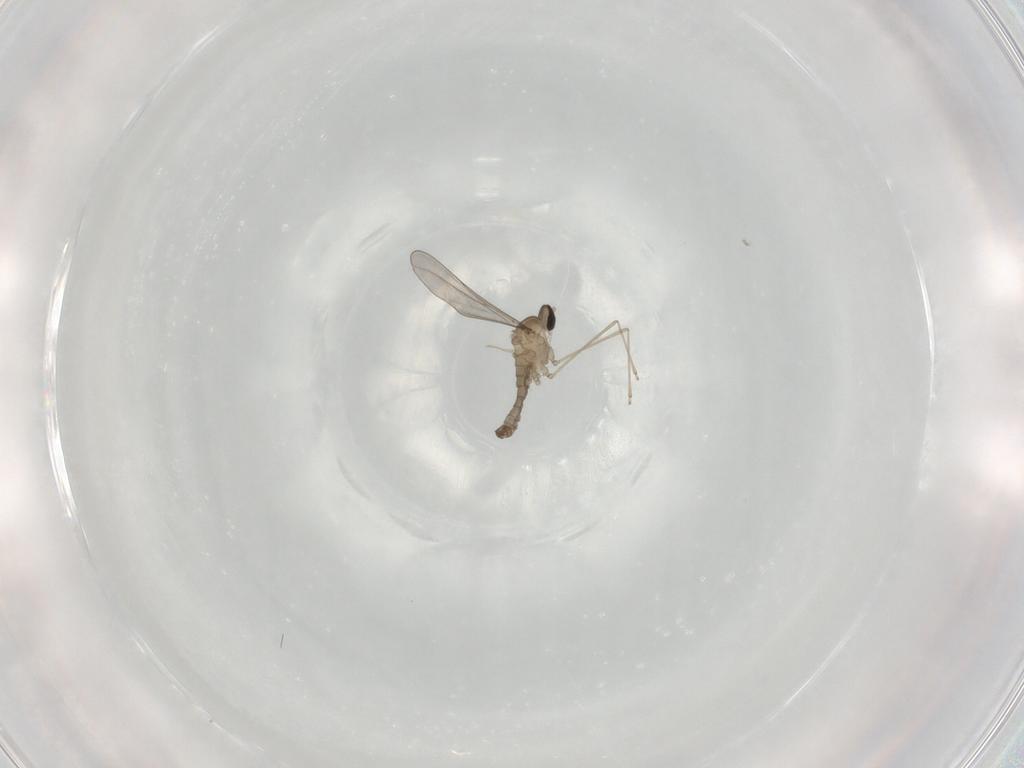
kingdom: Animalia
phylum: Arthropoda
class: Insecta
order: Diptera
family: Cecidomyiidae
